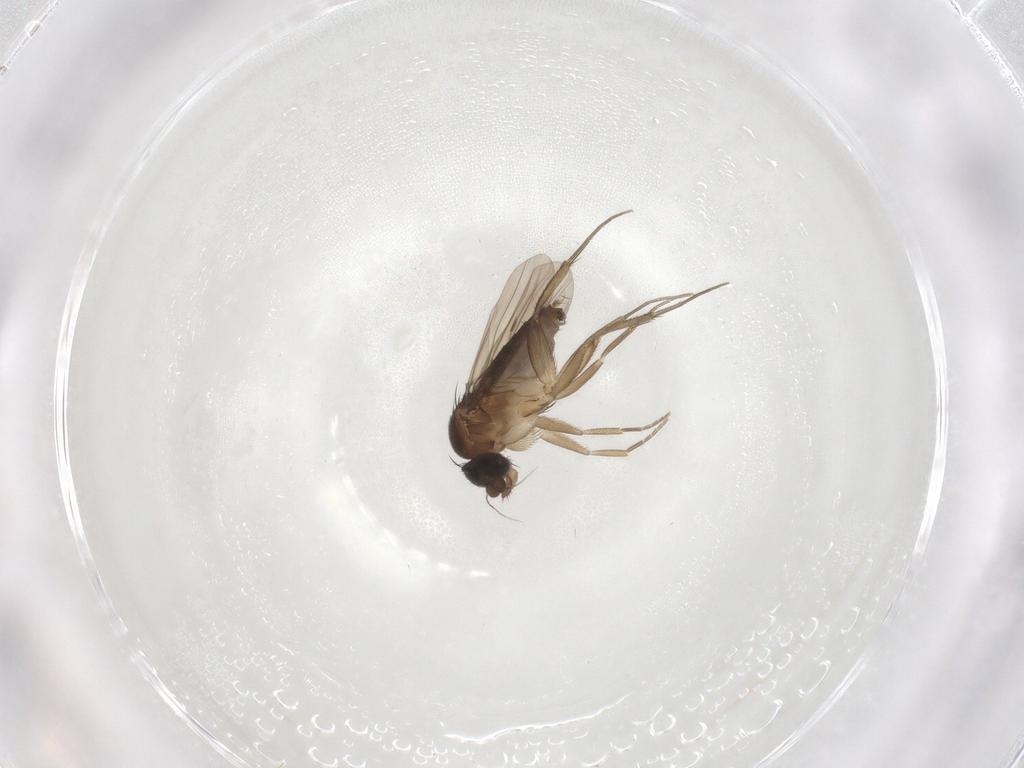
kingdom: Animalia
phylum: Arthropoda
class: Insecta
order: Diptera
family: Phoridae
